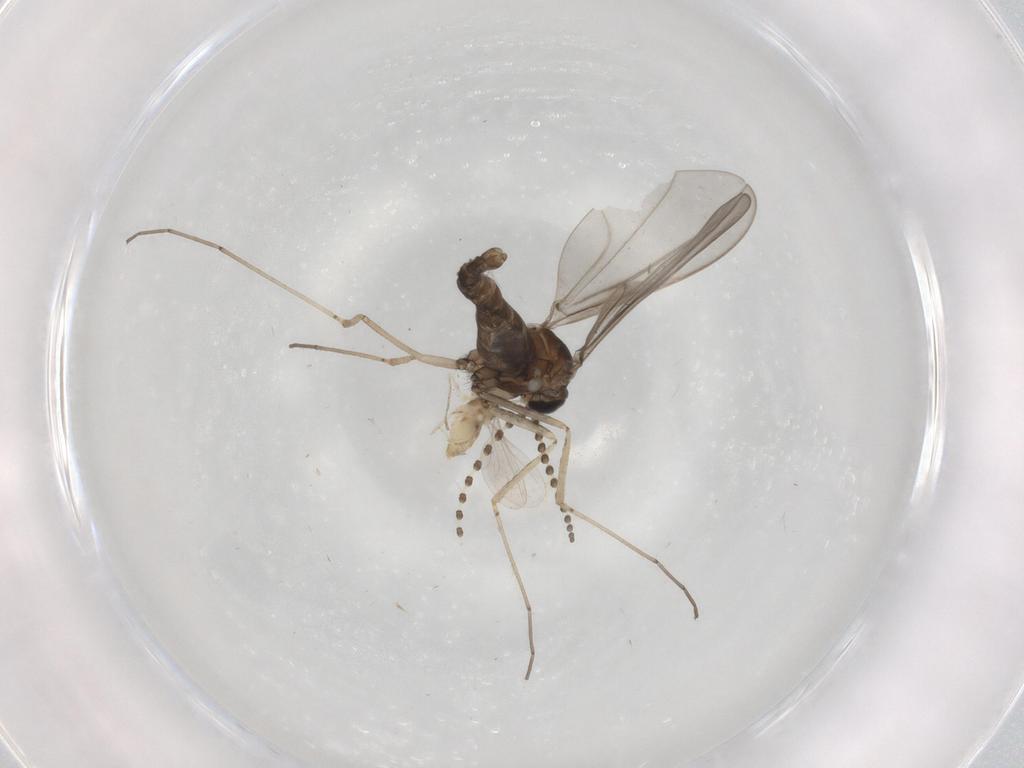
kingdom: Animalia
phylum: Arthropoda
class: Insecta
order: Diptera
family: Cecidomyiidae
